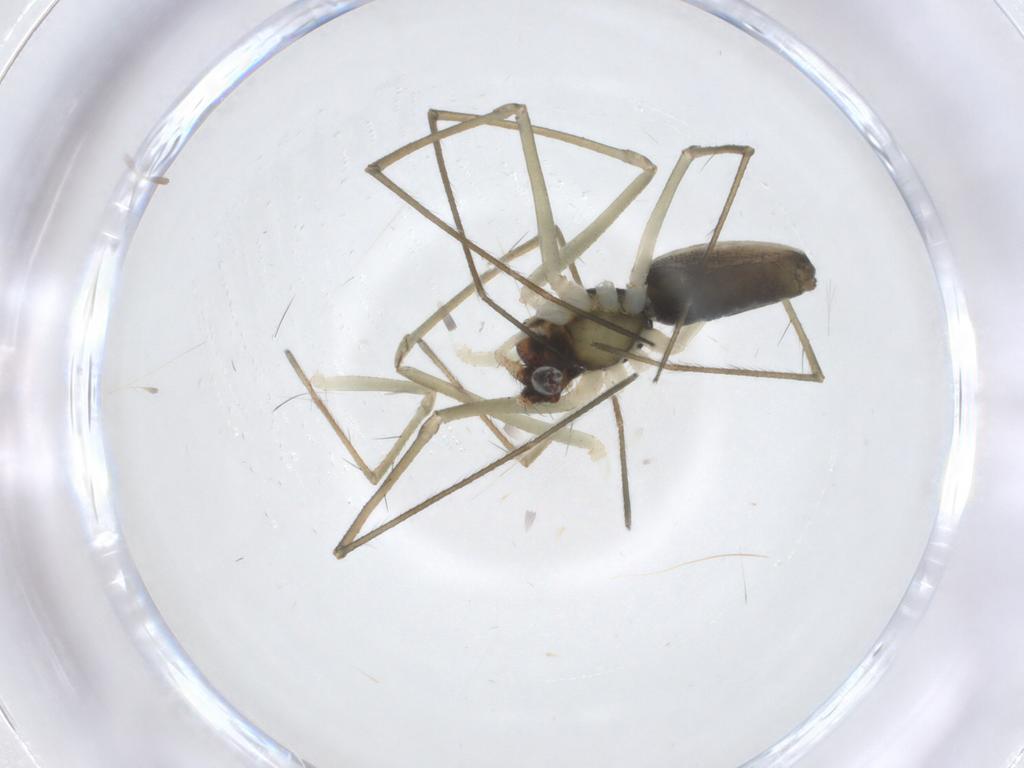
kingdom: Animalia
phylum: Arthropoda
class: Arachnida
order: Araneae
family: Linyphiidae
